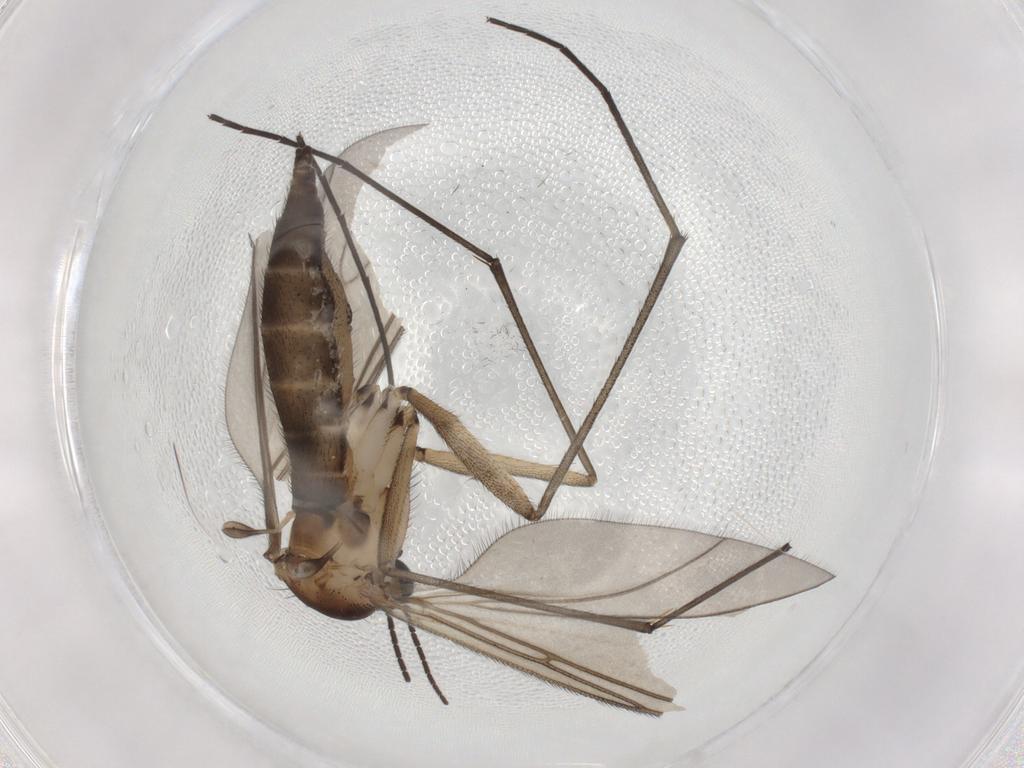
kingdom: Animalia
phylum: Arthropoda
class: Insecta
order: Diptera
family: Sciaridae
